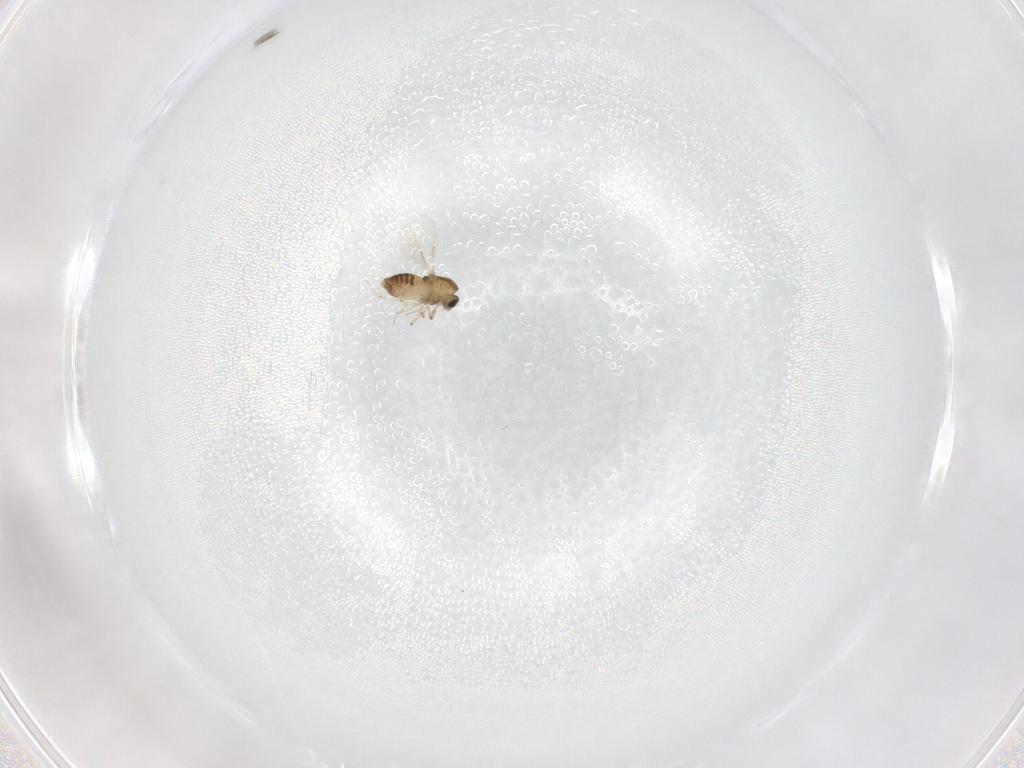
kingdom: Animalia
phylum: Arthropoda
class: Insecta
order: Diptera
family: Chironomidae
